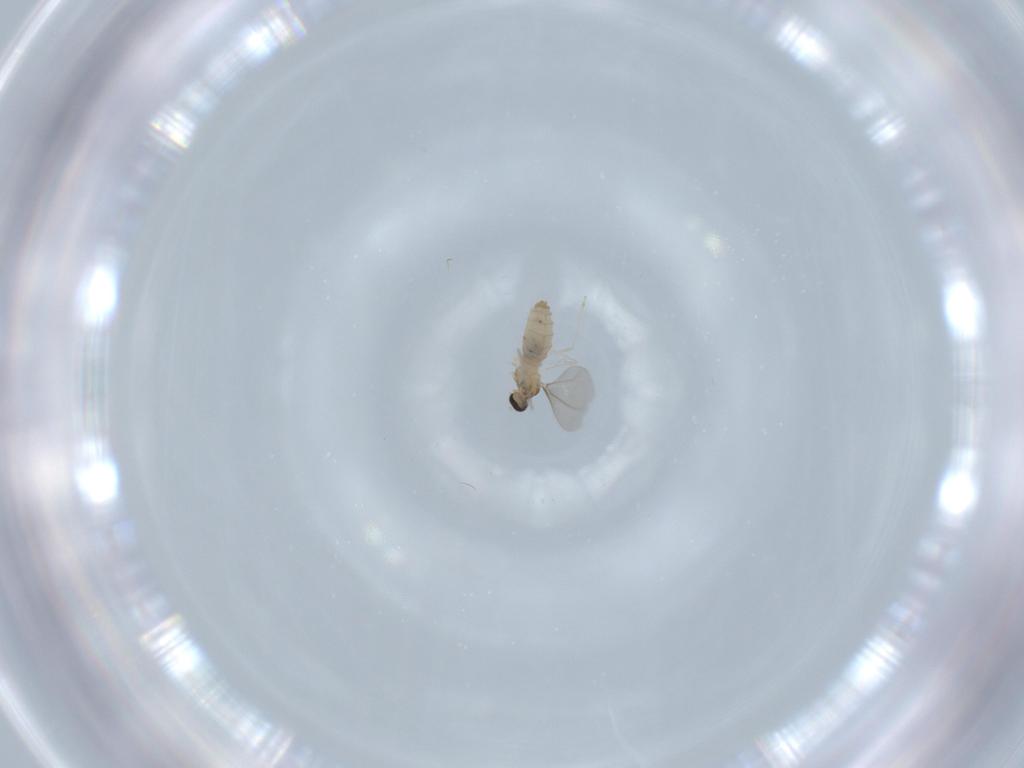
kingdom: Animalia
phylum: Arthropoda
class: Insecta
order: Diptera
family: Cecidomyiidae
